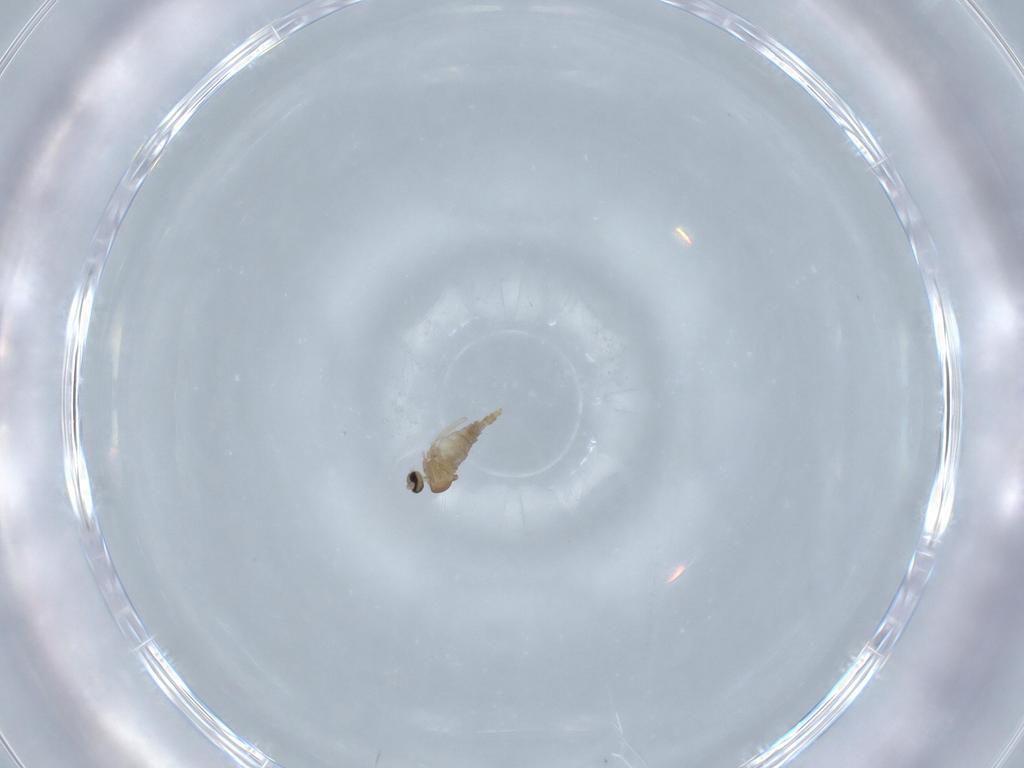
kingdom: Animalia
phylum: Arthropoda
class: Insecta
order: Diptera
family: Cecidomyiidae
